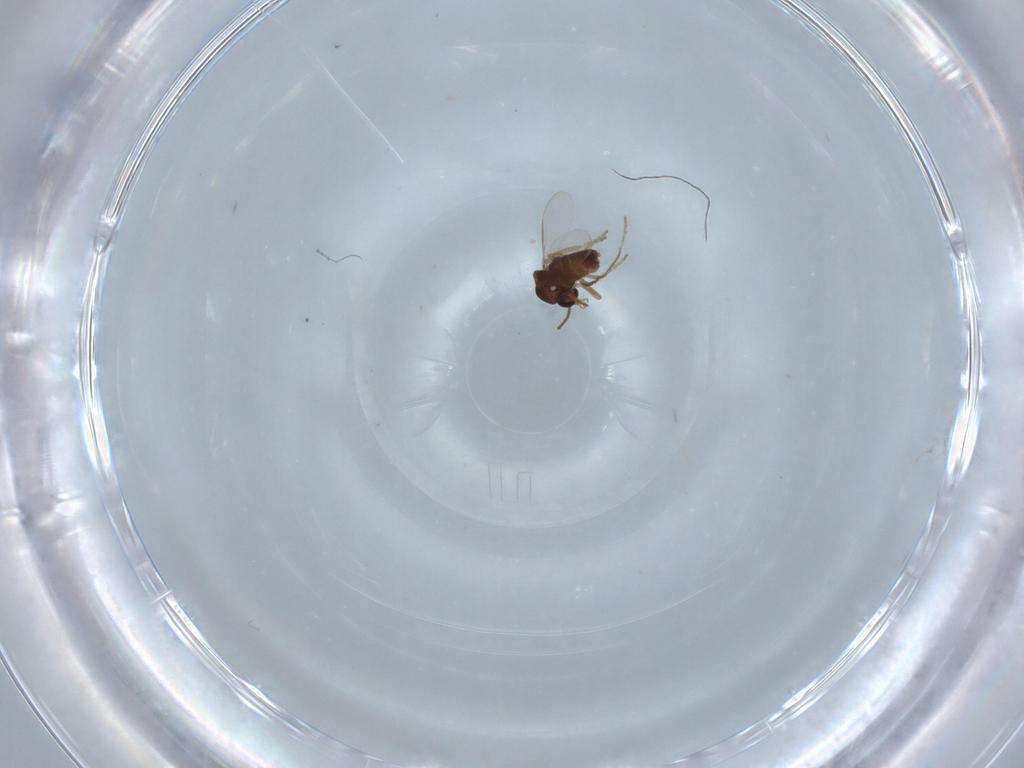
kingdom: Animalia
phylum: Arthropoda
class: Insecta
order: Diptera
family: Ceratopogonidae
